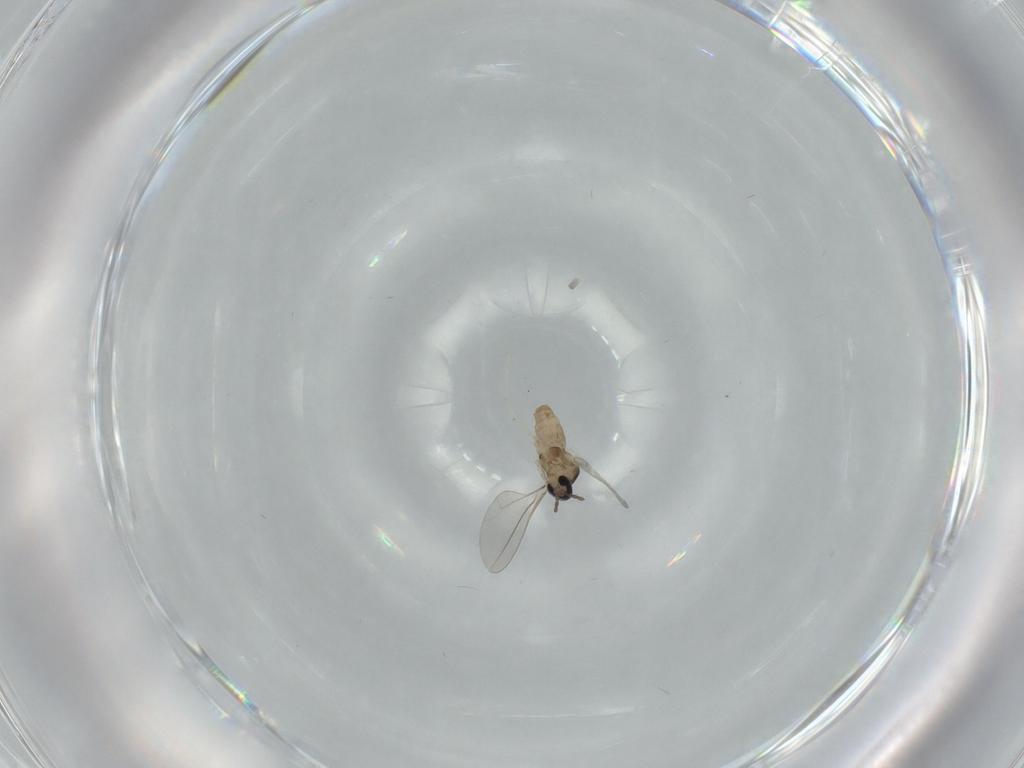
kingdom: Animalia
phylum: Arthropoda
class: Insecta
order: Diptera
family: Cecidomyiidae
